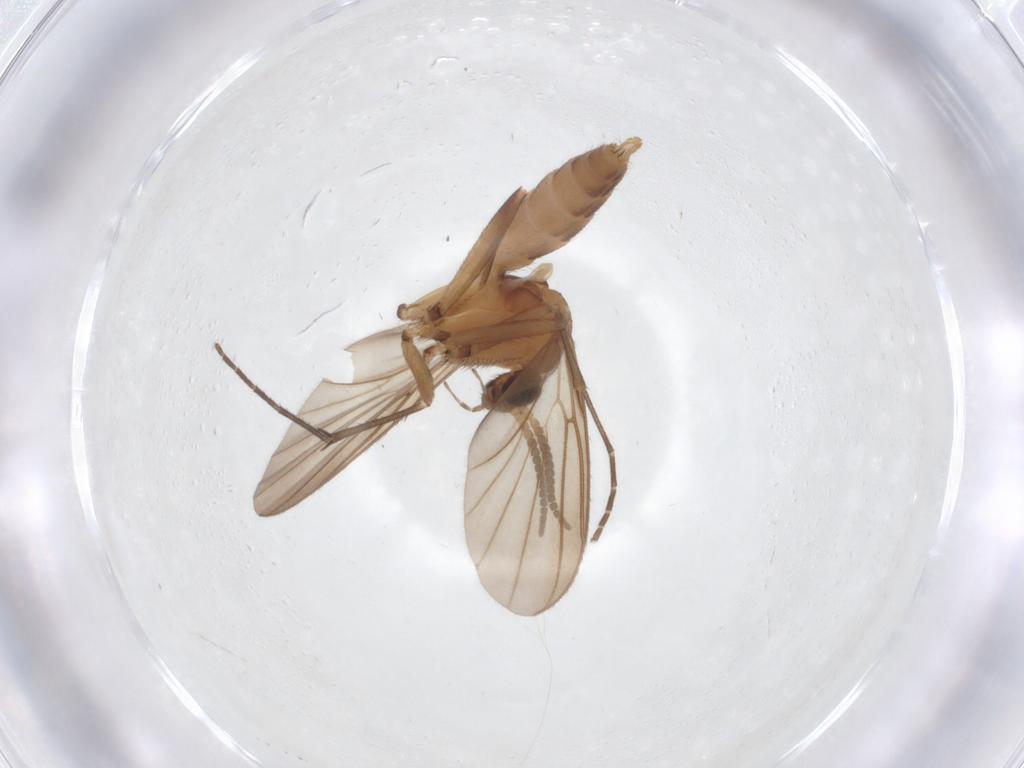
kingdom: Animalia
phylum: Arthropoda
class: Insecta
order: Diptera
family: Mycetophilidae
